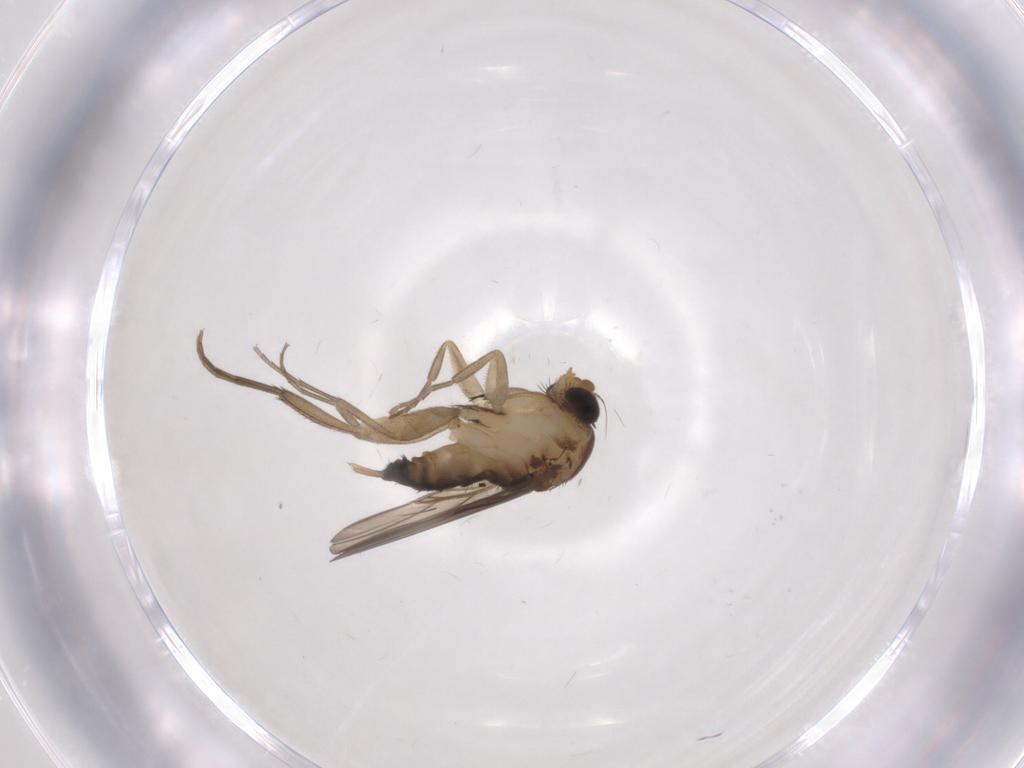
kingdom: Animalia
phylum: Arthropoda
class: Insecta
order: Diptera
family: Phoridae
